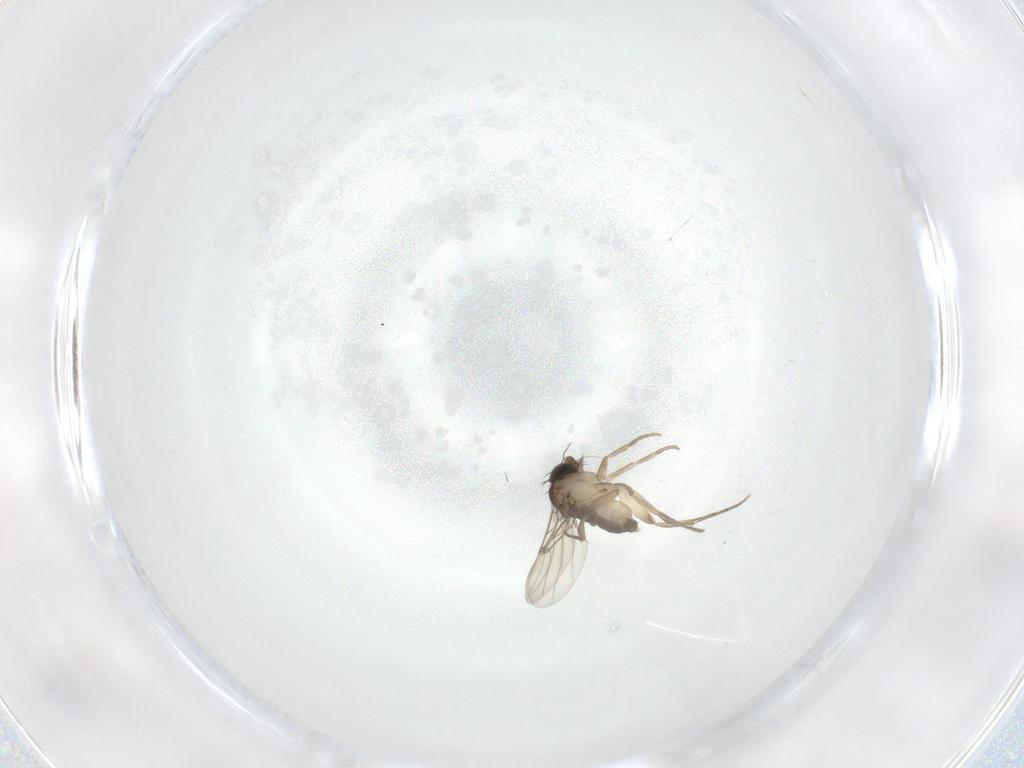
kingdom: Animalia
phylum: Arthropoda
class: Insecta
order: Diptera
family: Phoridae
